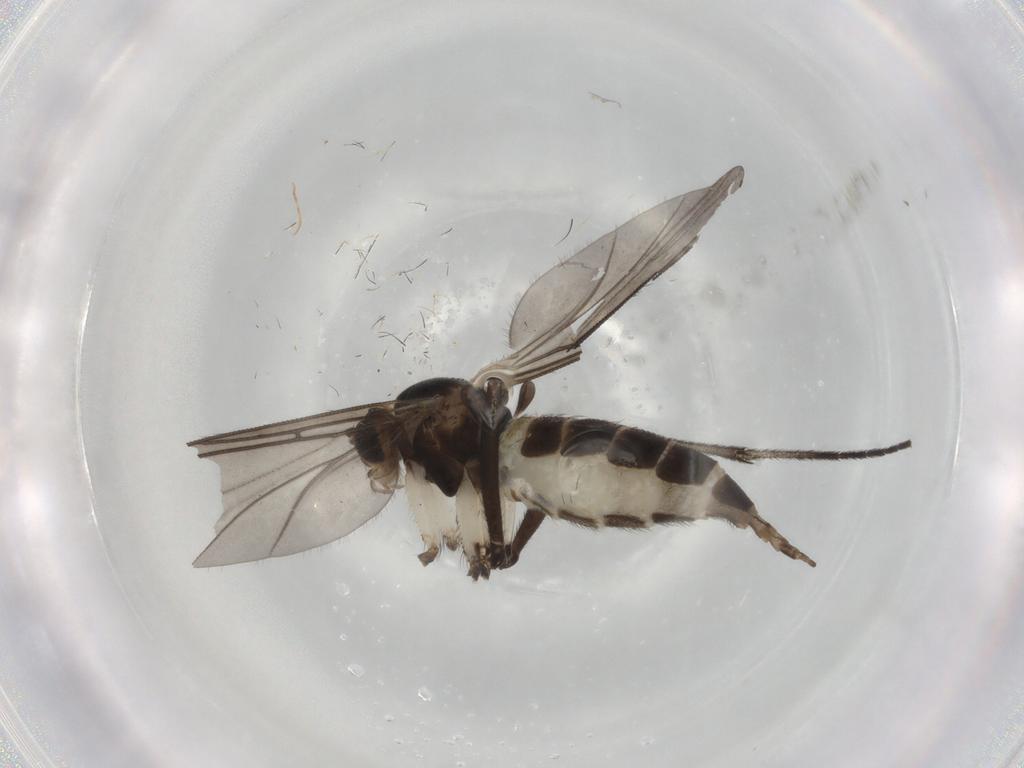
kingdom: Animalia
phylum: Arthropoda
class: Insecta
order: Diptera
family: Sciaridae
